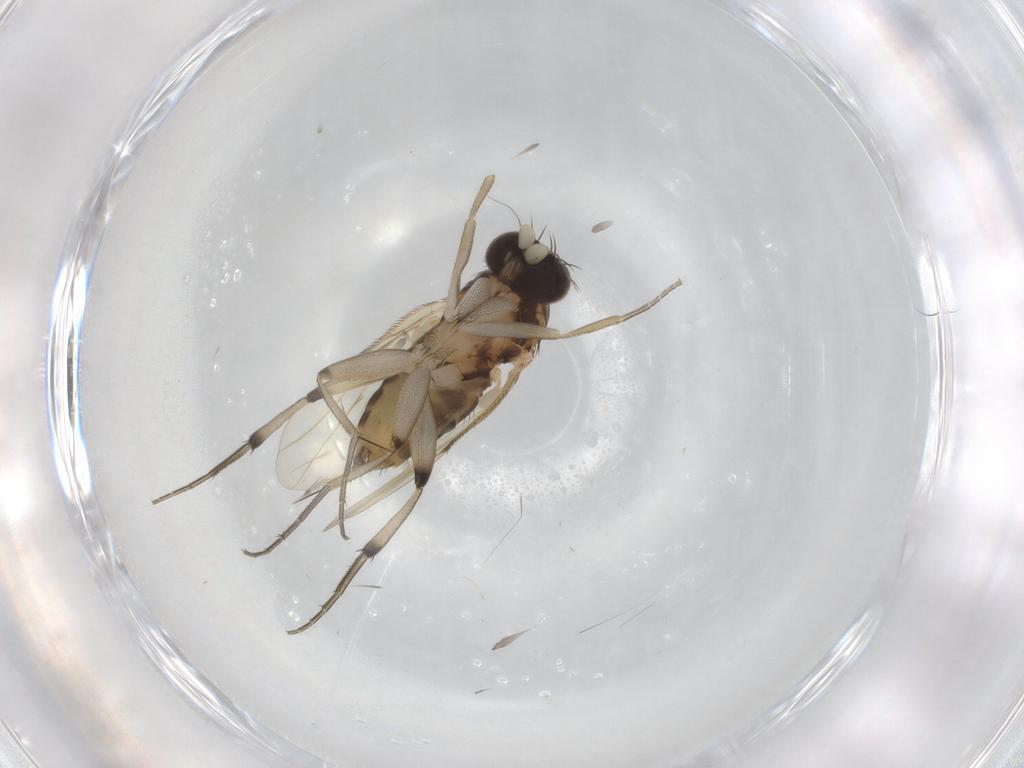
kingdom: Animalia
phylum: Arthropoda
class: Insecta
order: Diptera
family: Phoridae
